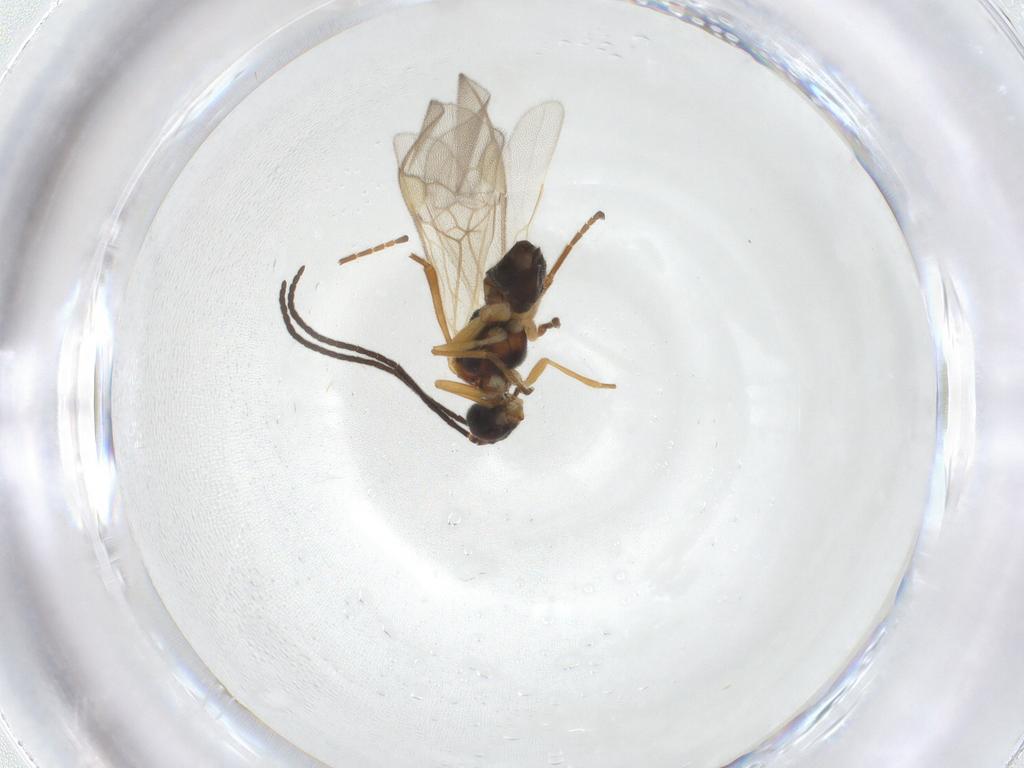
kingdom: Animalia
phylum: Arthropoda
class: Insecta
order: Hymenoptera
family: Braconidae
